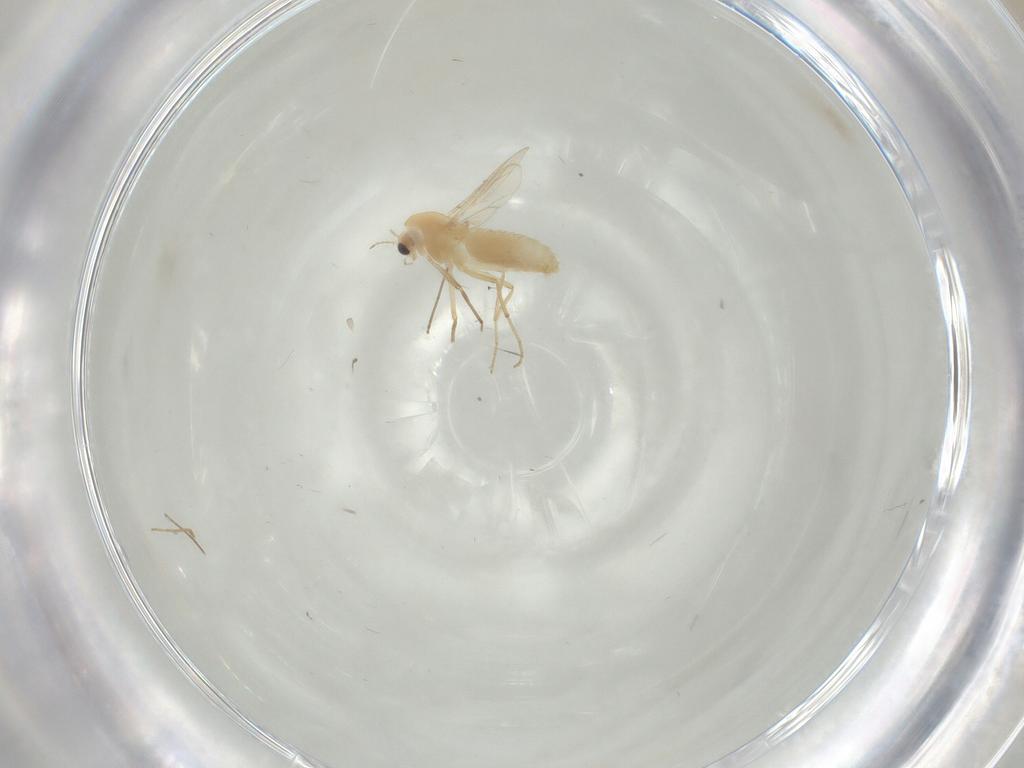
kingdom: Animalia
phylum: Arthropoda
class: Insecta
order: Diptera
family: Chironomidae
